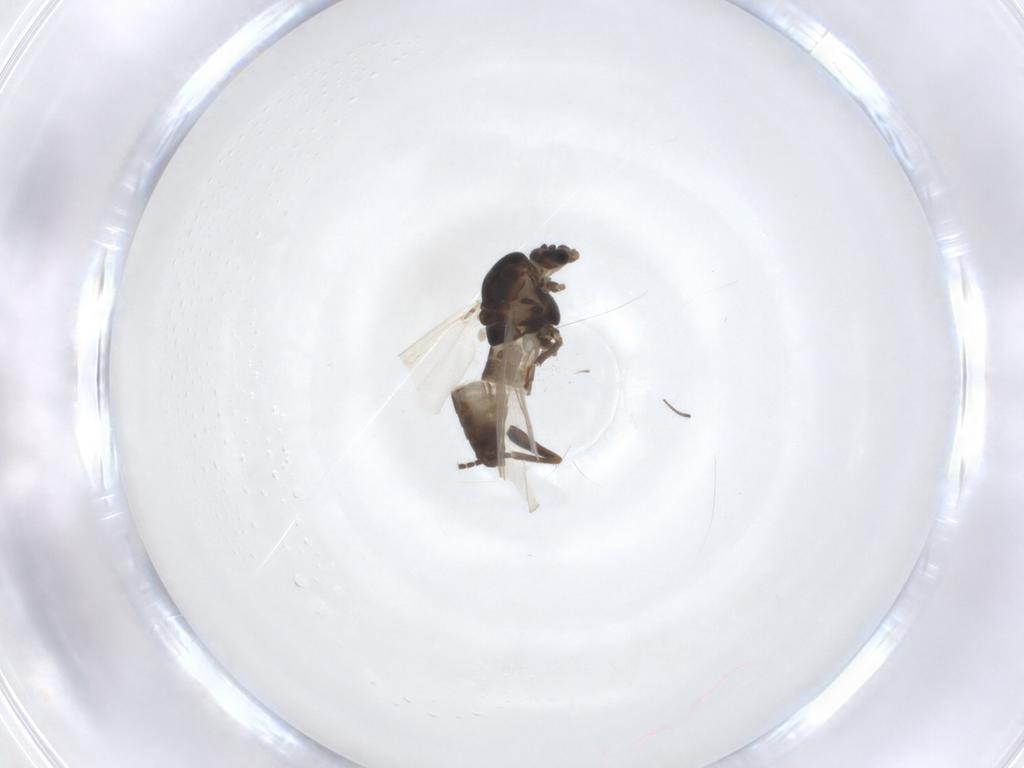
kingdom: Animalia
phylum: Arthropoda
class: Insecta
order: Diptera
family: Chironomidae
